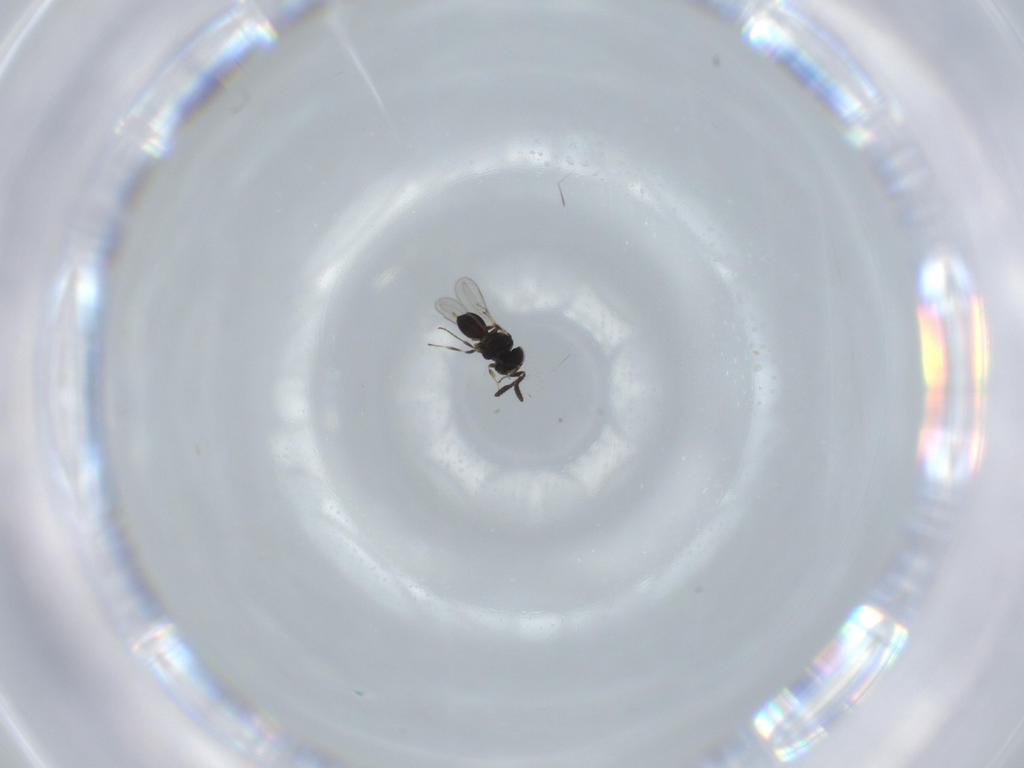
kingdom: Animalia
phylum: Arthropoda
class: Insecta
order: Hymenoptera
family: Scelionidae
